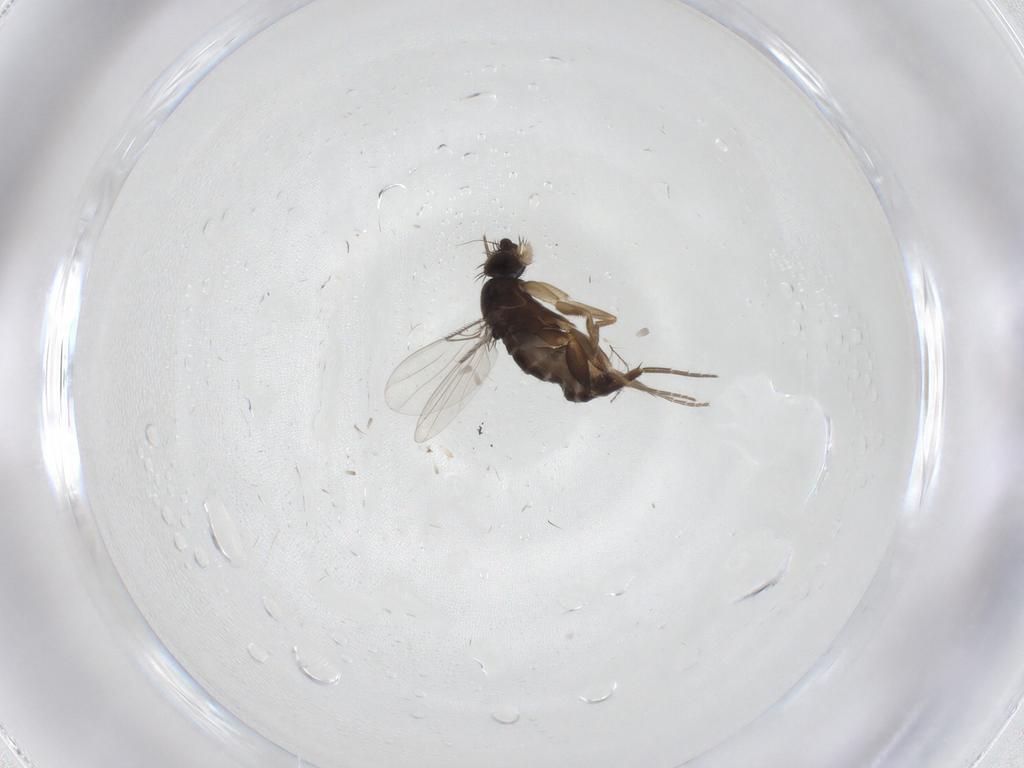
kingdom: Animalia
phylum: Arthropoda
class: Insecta
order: Diptera
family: Phoridae
